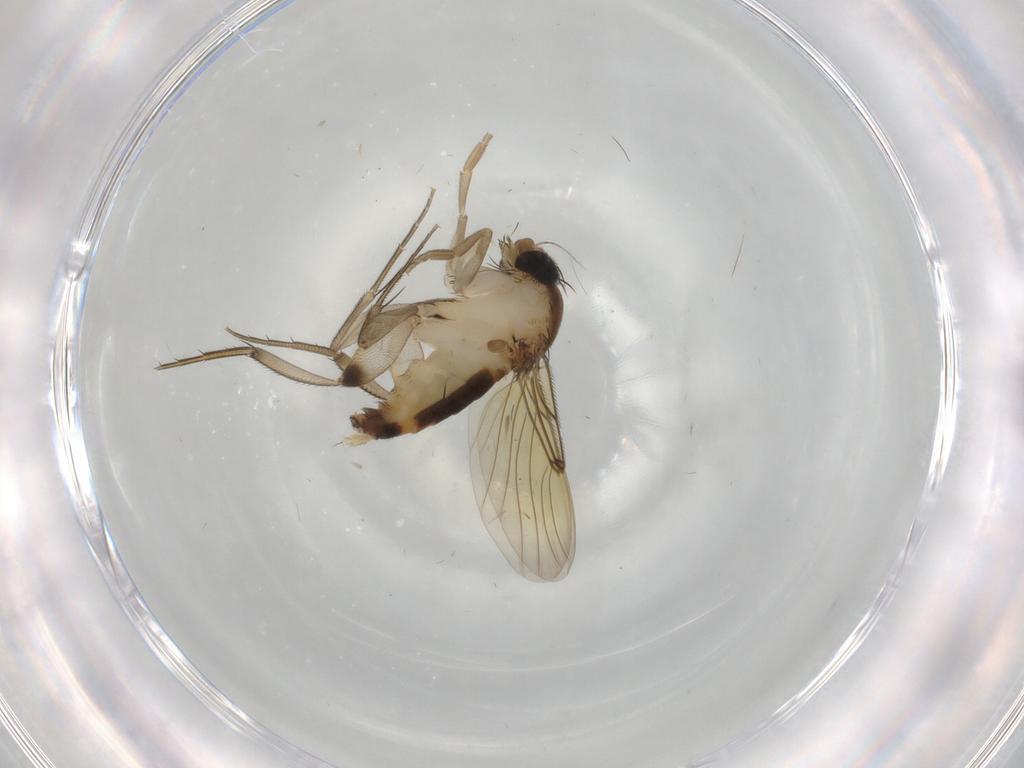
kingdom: Animalia
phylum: Arthropoda
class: Insecta
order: Diptera
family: Phoridae
